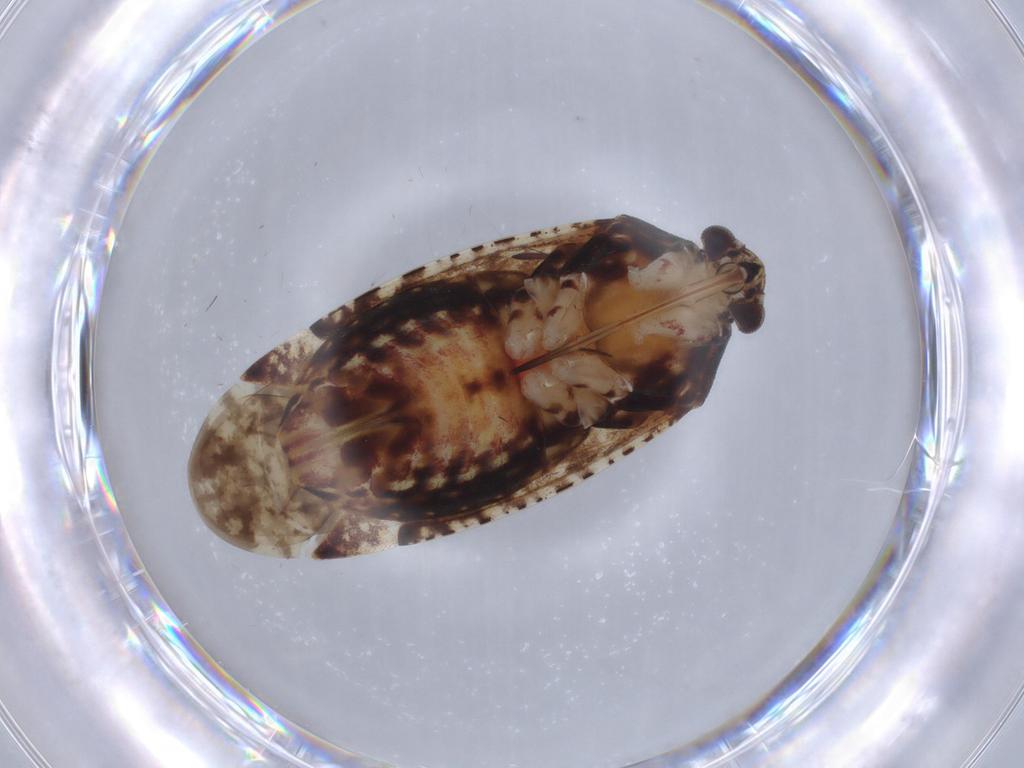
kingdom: Animalia
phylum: Arthropoda
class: Insecta
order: Hemiptera
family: Miridae
